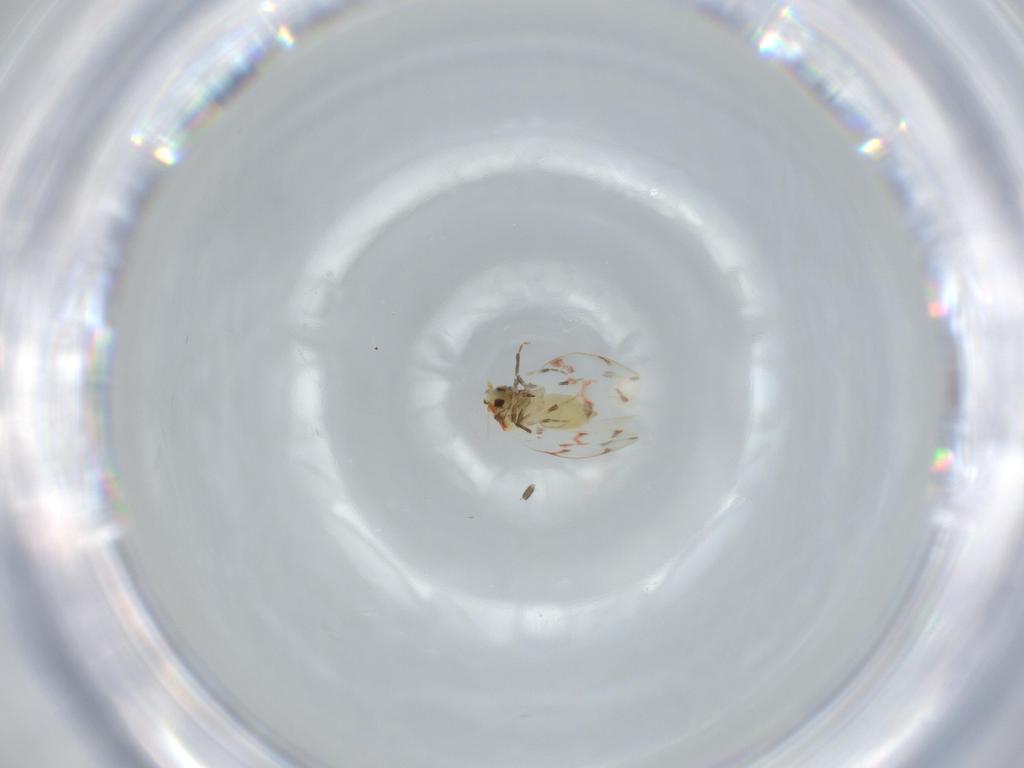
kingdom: Animalia
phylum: Arthropoda
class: Insecta
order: Hemiptera
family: Aleyrodidae
